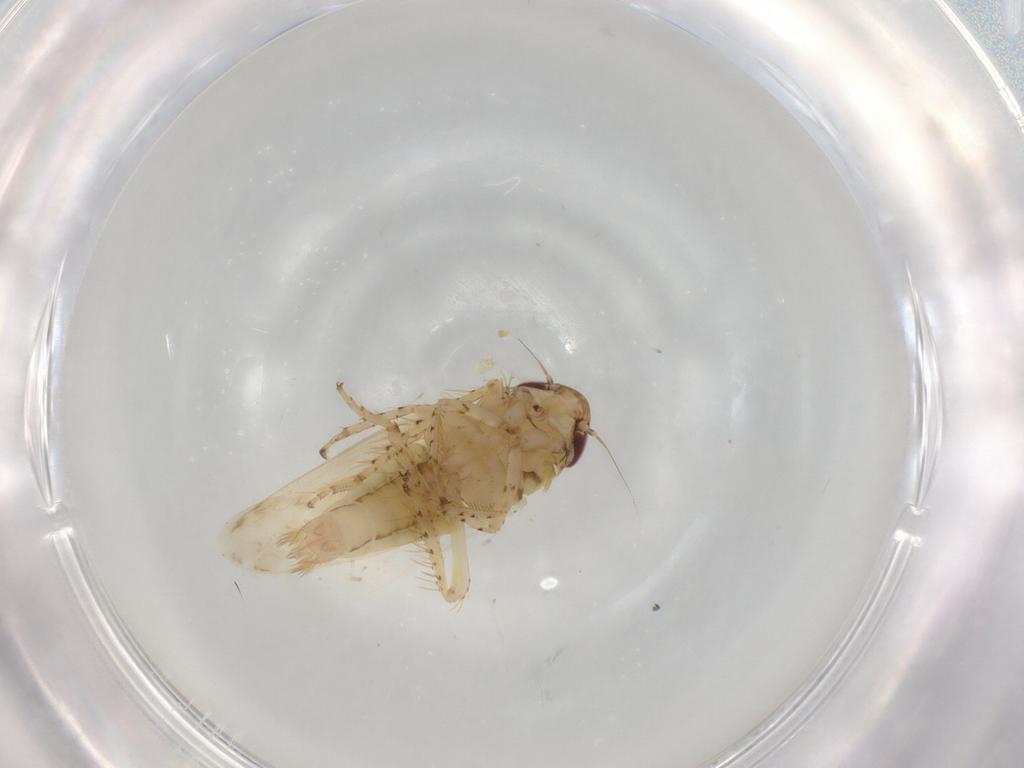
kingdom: Animalia
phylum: Arthropoda
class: Insecta
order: Hemiptera
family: Cicadellidae
